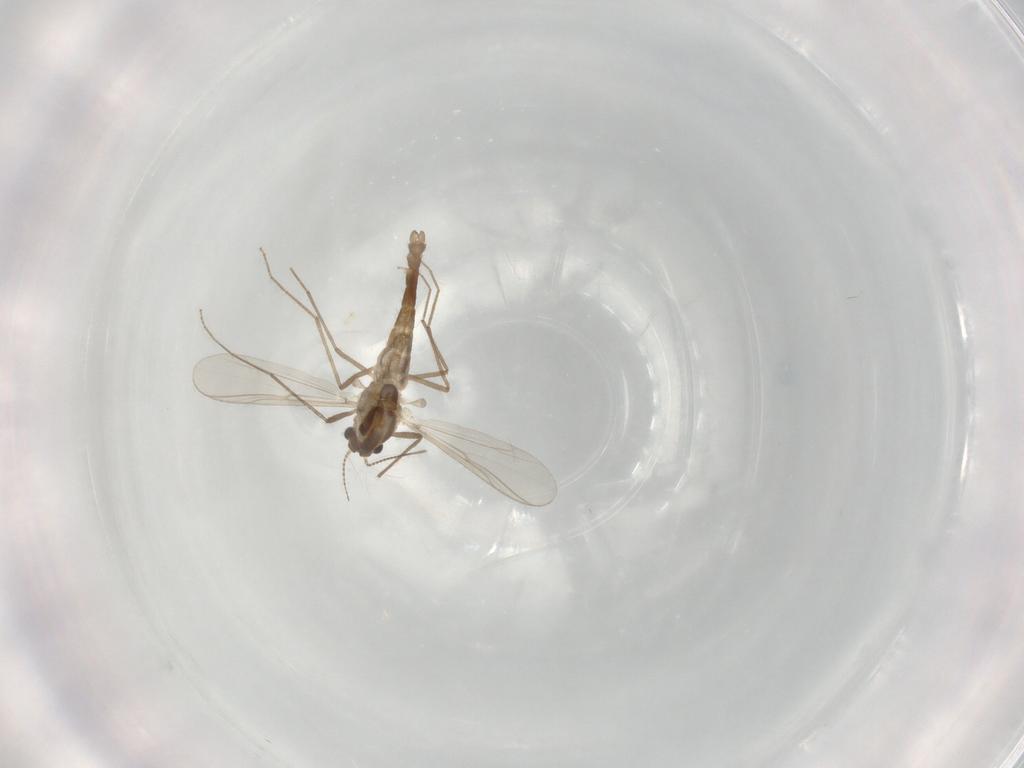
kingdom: Animalia
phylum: Arthropoda
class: Insecta
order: Diptera
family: Chironomidae
